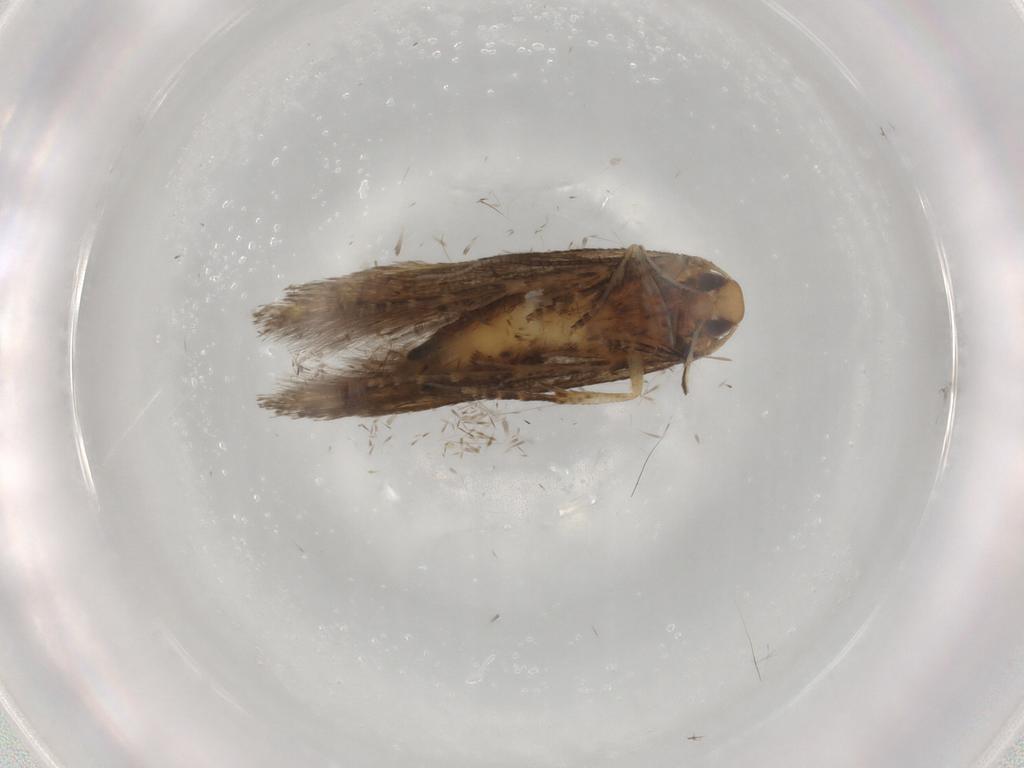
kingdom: Animalia
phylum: Arthropoda
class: Insecta
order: Lepidoptera
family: Cosmopterigidae
